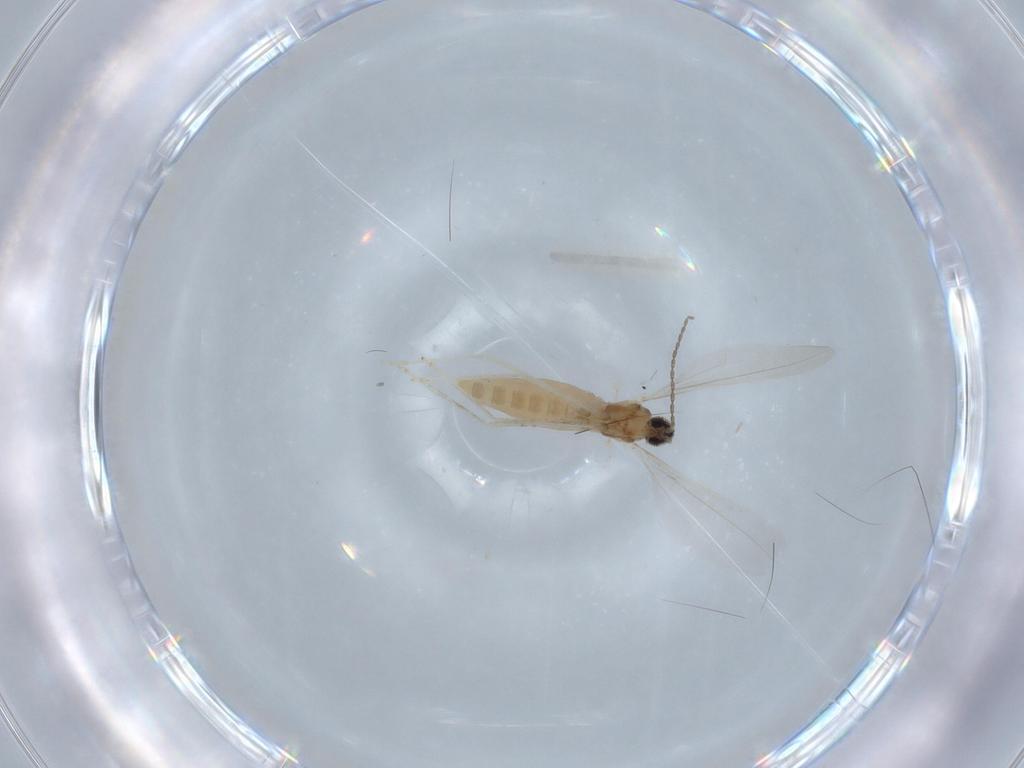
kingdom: Animalia
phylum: Arthropoda
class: Insecta
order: Diptera
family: Cecidomyiidae
